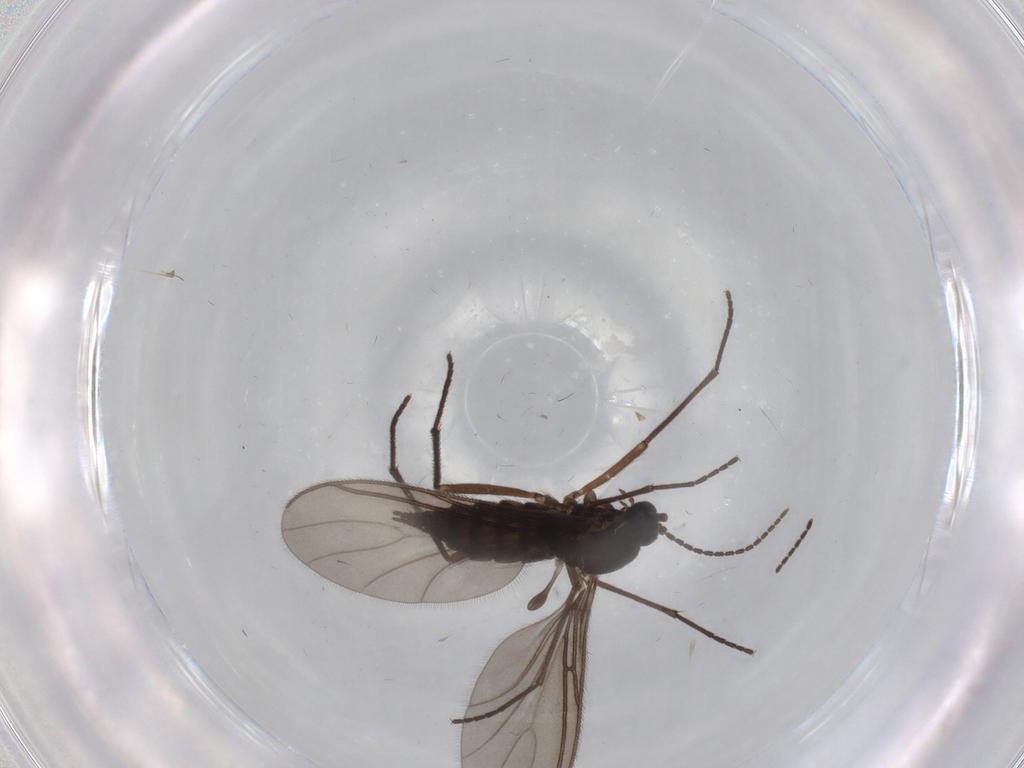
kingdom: Animalia
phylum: Arthropoda
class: Insecta
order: Diptera
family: Sciaridae
